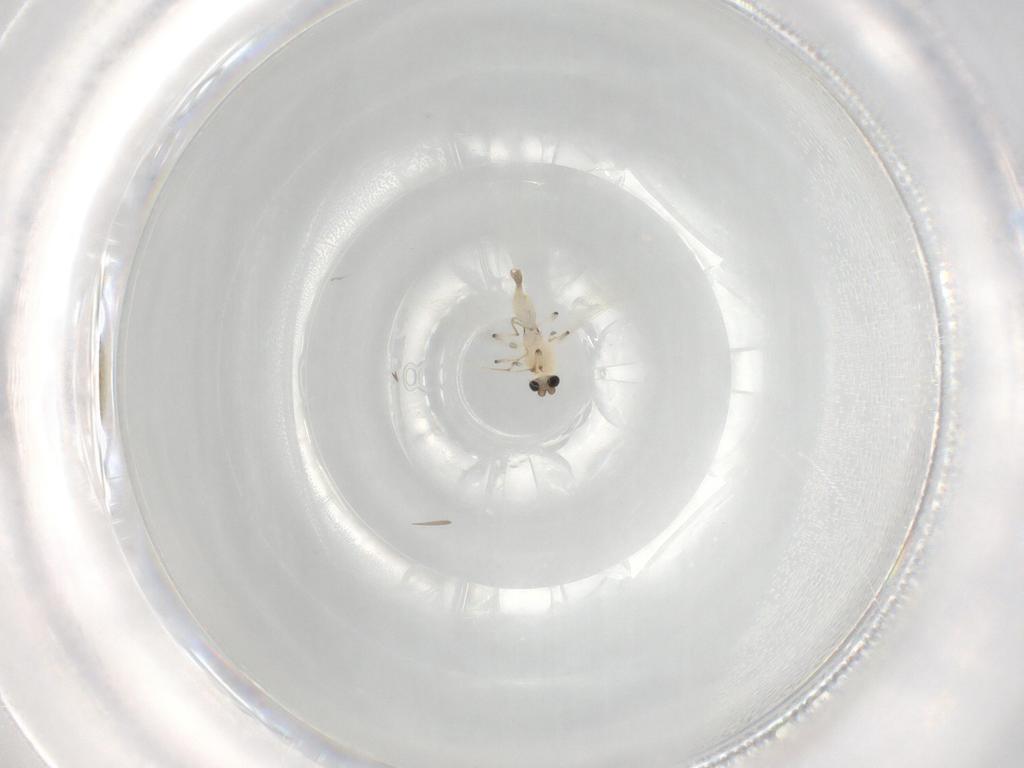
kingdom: Animalia
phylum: Arthropoda
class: Insecta
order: Diptera
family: Chironomidae
